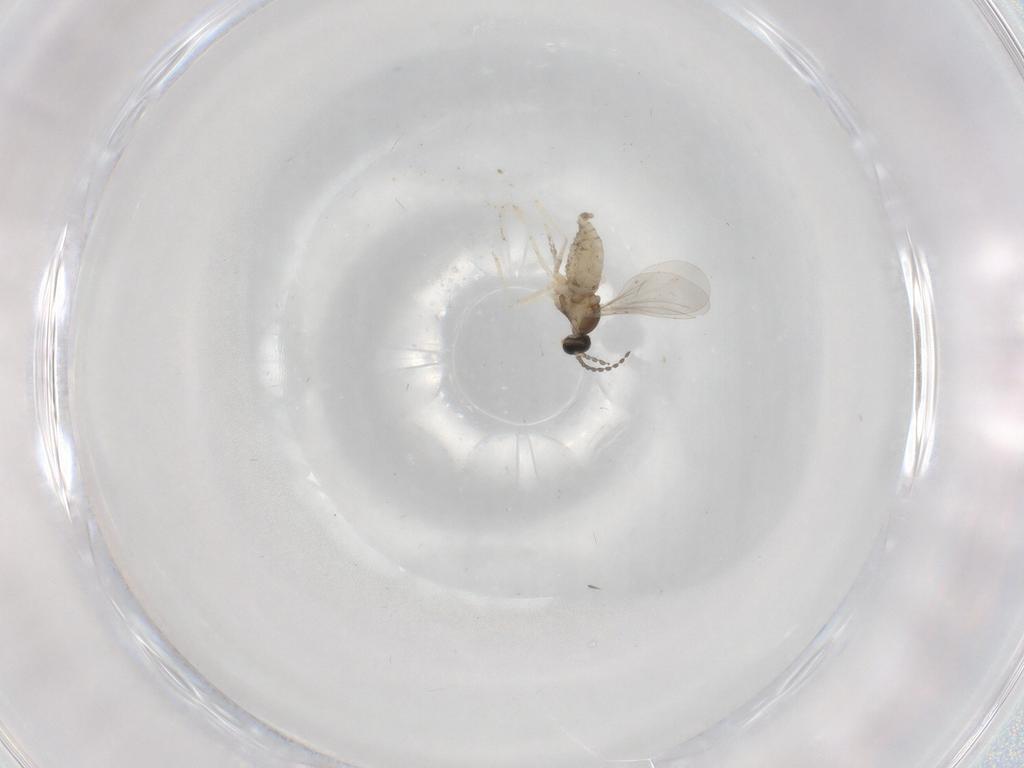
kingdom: Animalia
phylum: Arthropoda
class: Insecta
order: Diptera
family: Cecidomyiidae
